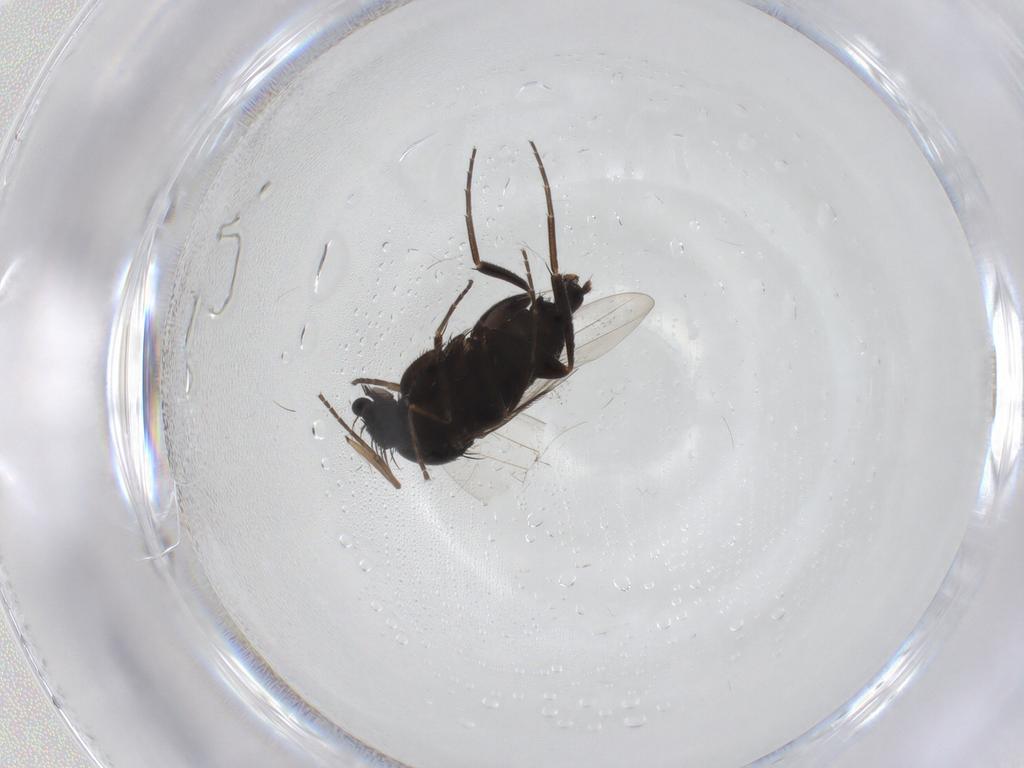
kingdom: Animalia
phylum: Arthropoda
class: Insecta
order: Diptera
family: Phoridae
